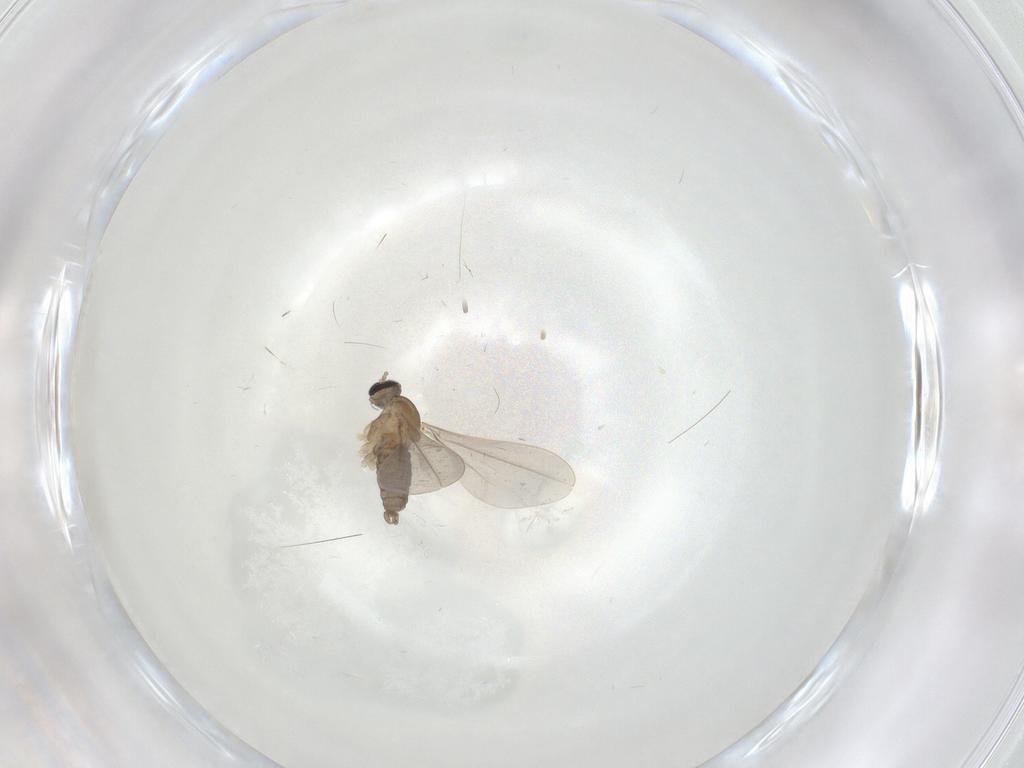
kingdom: Animalia
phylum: Arthropoda
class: Insecta
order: Diptera
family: Cecidomyiidae
